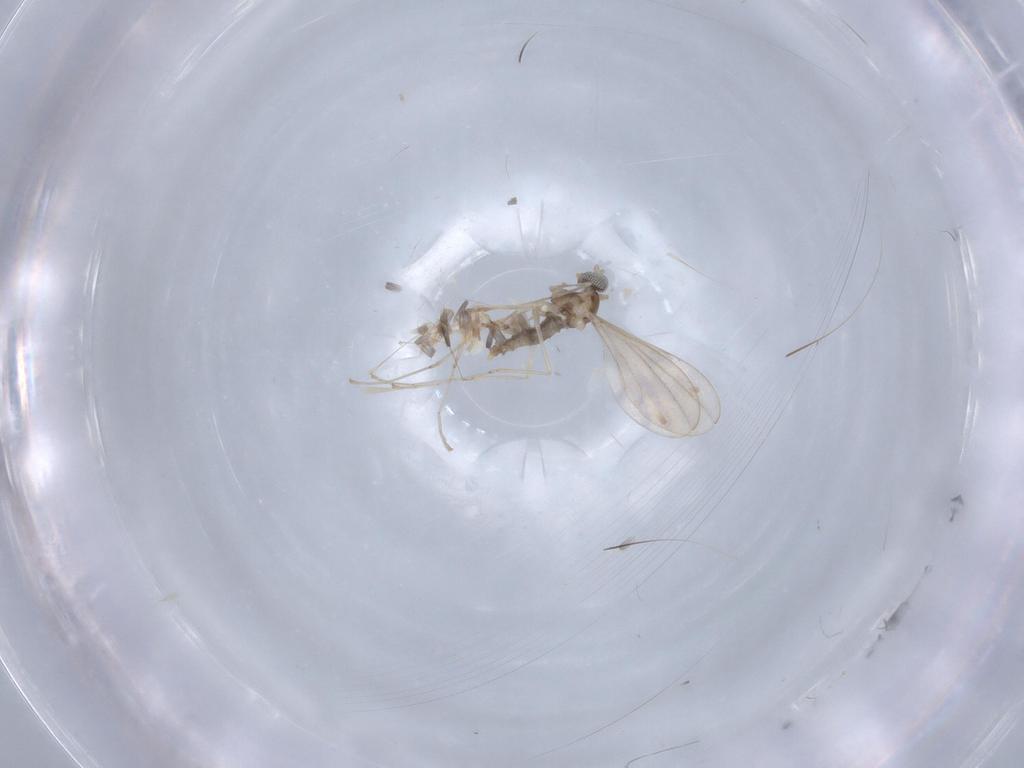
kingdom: Animalia
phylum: Arthropoda
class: Insecta
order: Diptera
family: Cecidomyiidae
